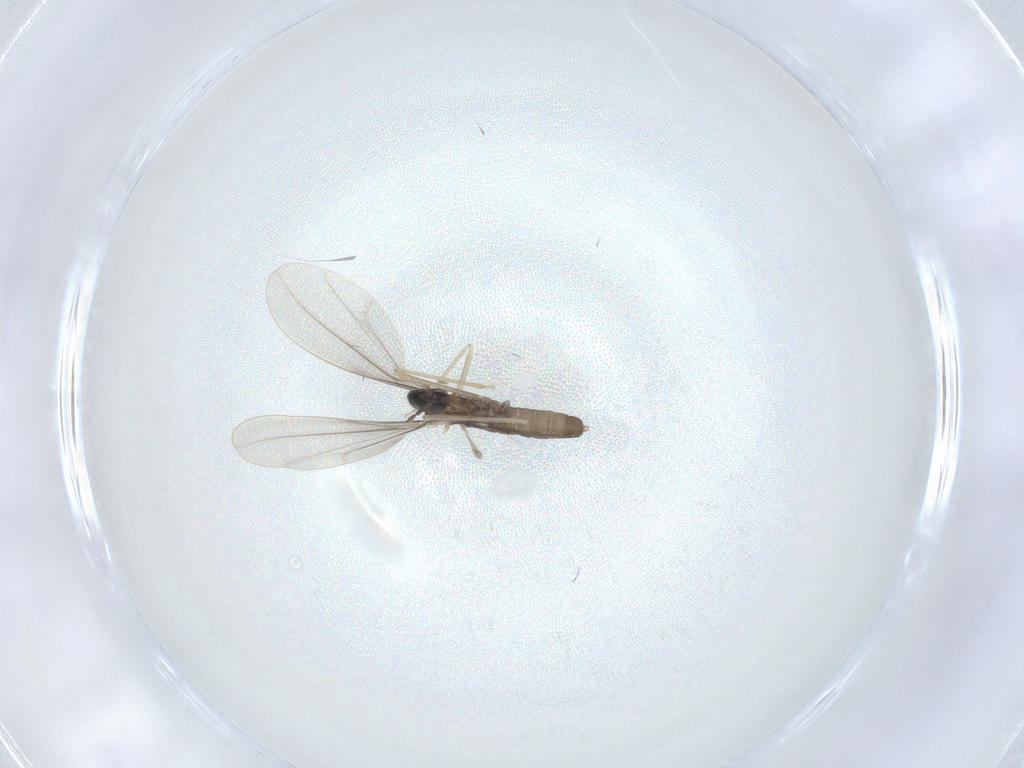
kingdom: Animalia
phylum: Arthropoda
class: Insecta
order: Diptera
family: Cecidomyiidae
